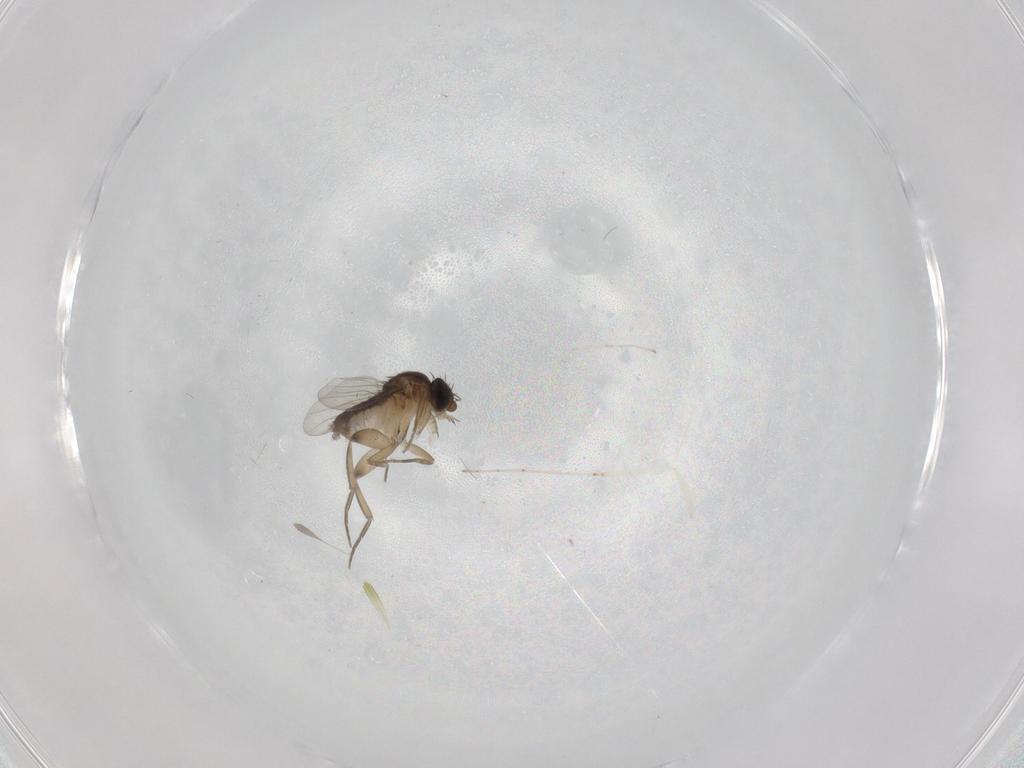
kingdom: Animalia
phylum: Arthropoda
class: Insecta
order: Diptera
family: Phoridae
